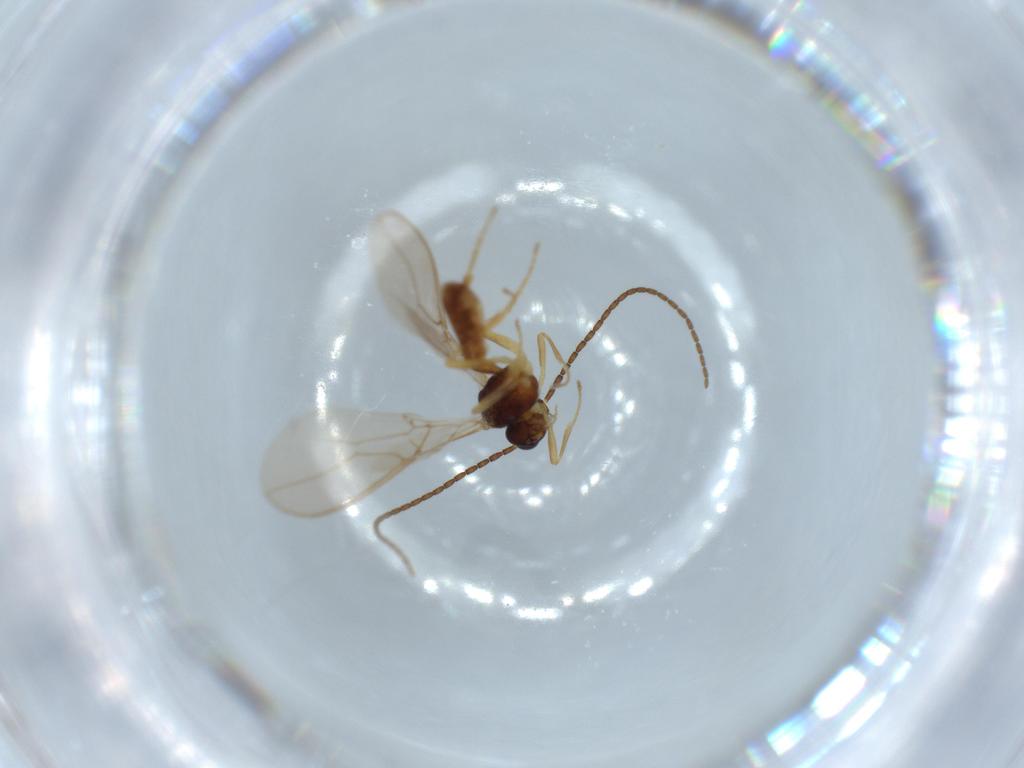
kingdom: Animalia
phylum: Arthropoda
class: Insecta
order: Hymenoptera
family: Braconidae
